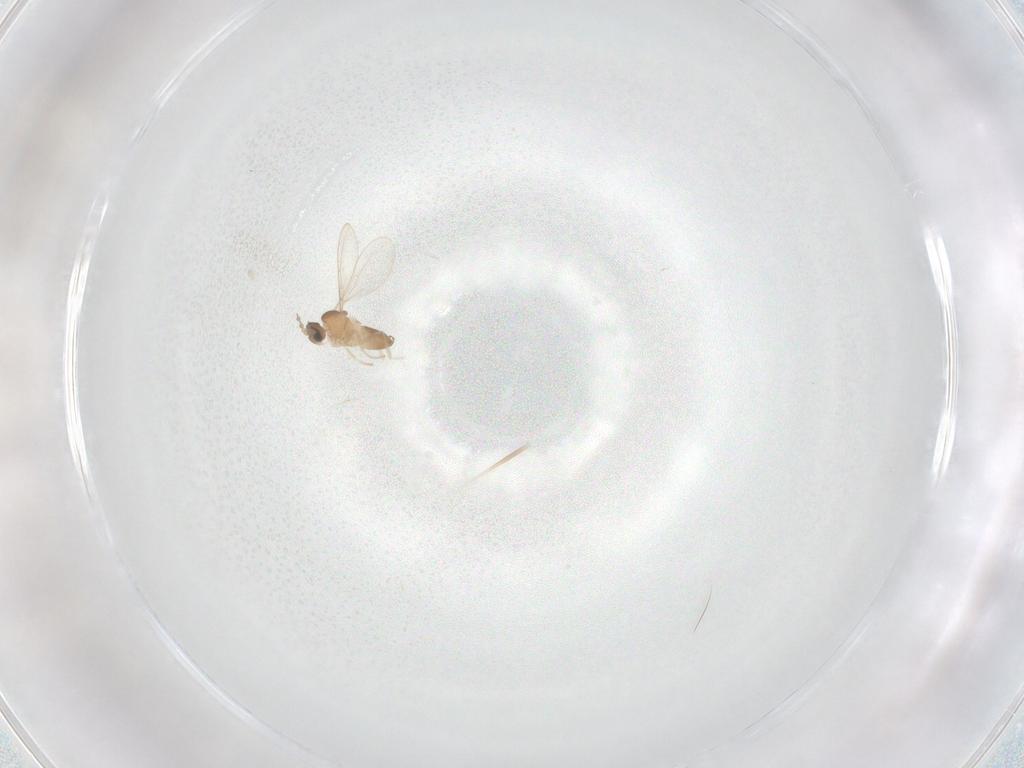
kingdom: Animalia
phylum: Arthropoda
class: Insecta
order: Diptera
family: Cecidomyiidae
